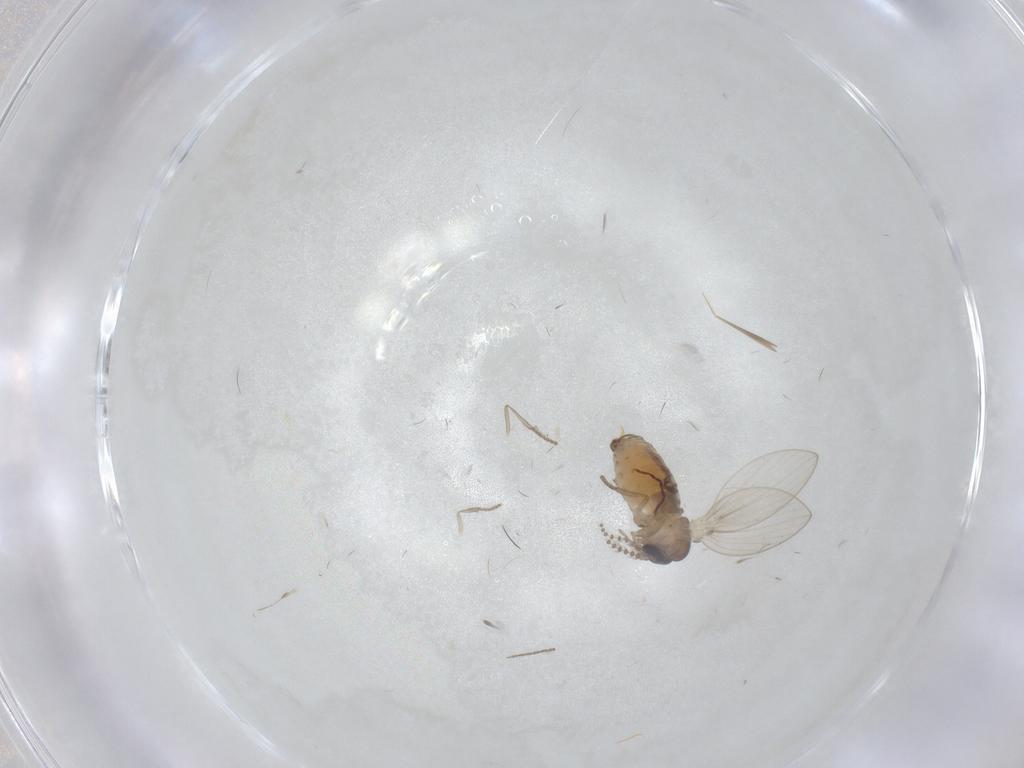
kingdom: Animalia
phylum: Arthropoda
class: Insecta
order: Diptera
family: Psychodidae
